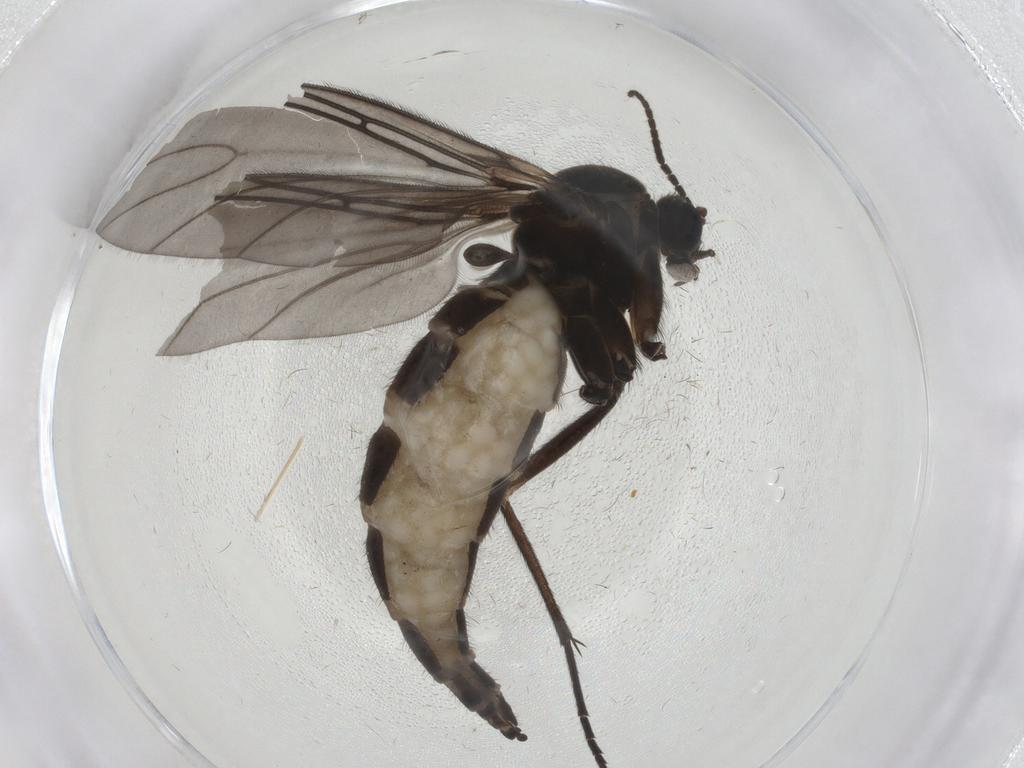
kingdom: Animalia
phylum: Arthropoda
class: Insecta
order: Diptera
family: Sciaridae
